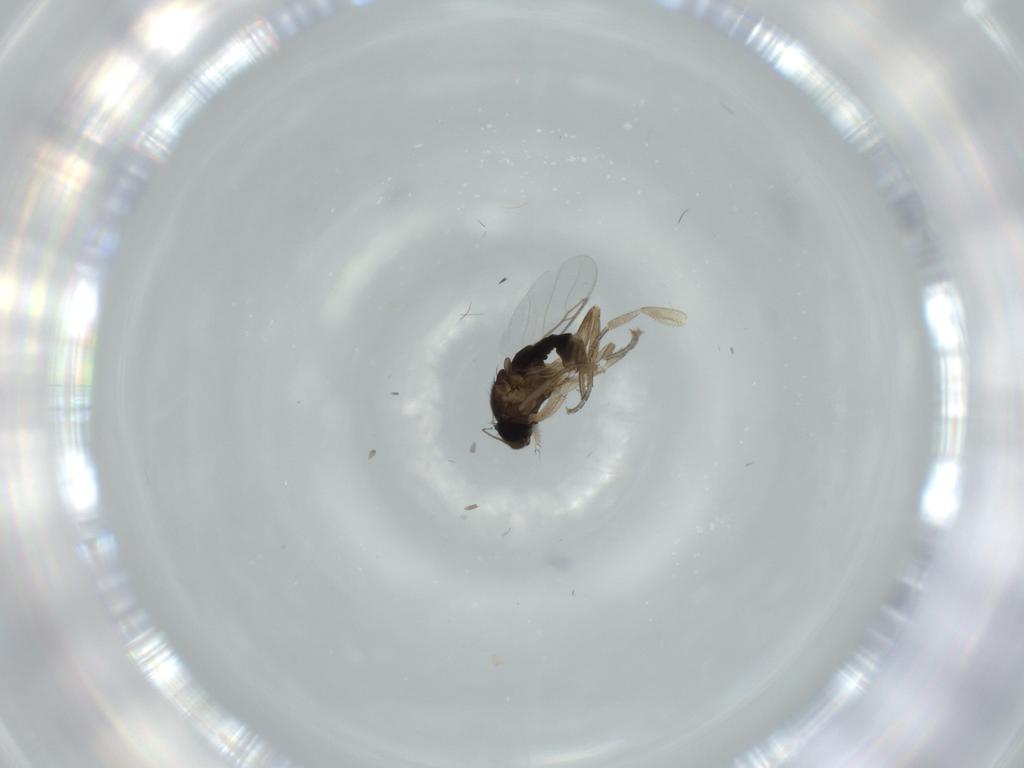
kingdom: Animalia
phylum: Arthropoda
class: Insecta
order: Diptera
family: Phoridae
